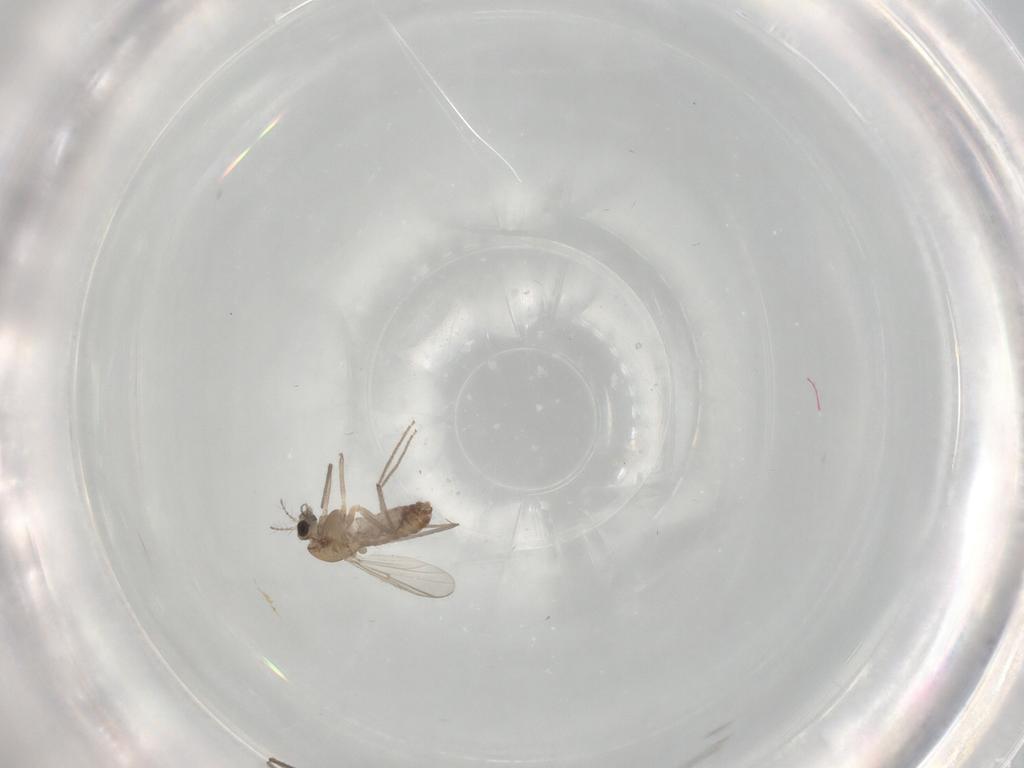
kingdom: Animalia
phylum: Arthropoda
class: Insecta
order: Diptera
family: Chironomidae
